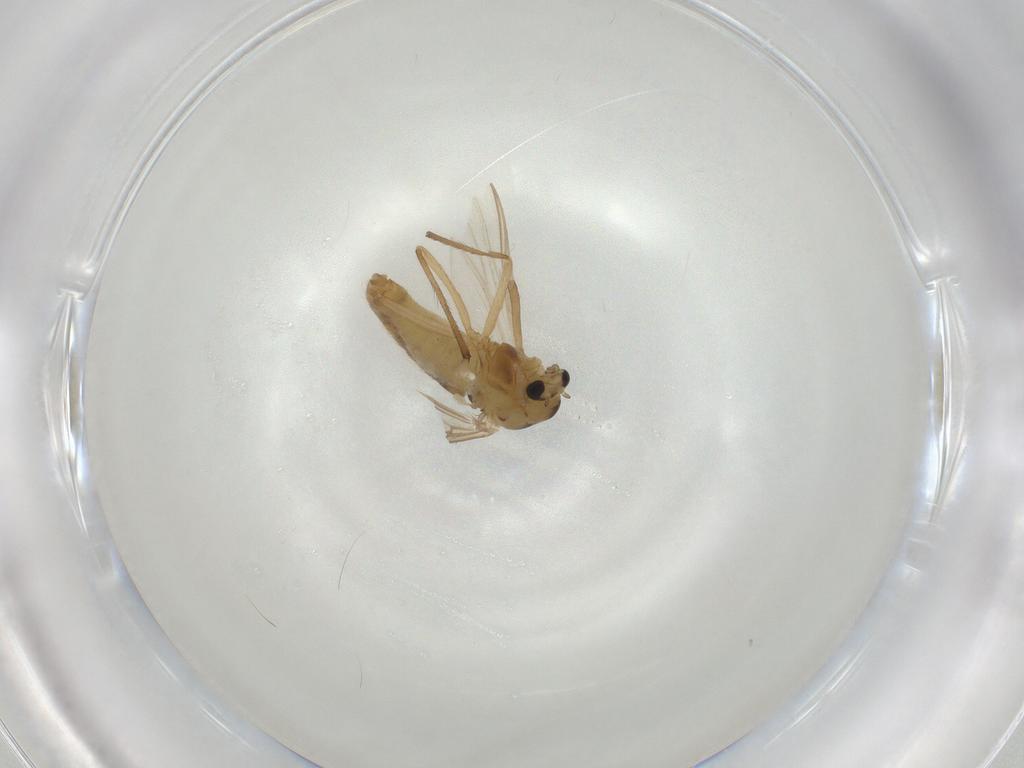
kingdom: Animalia
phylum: Arthropoda
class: Insecta
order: Diptera
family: Chironomidae
